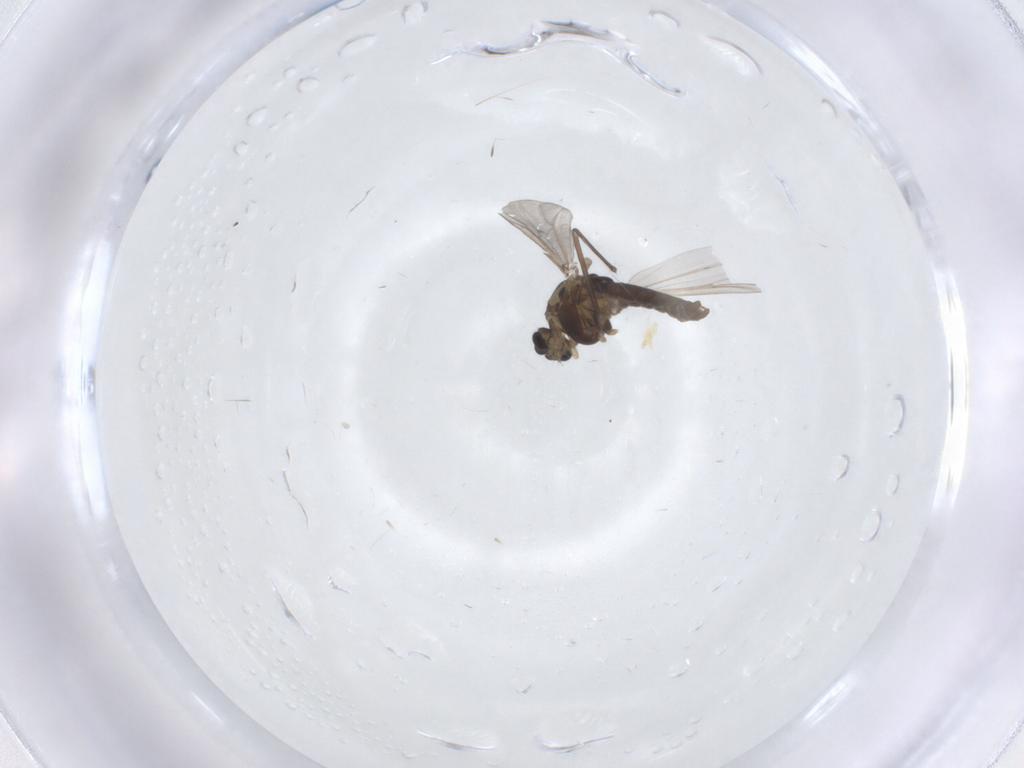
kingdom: Animalia
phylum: Arthropoda
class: Insecta
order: Diptera
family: Chironomidae
